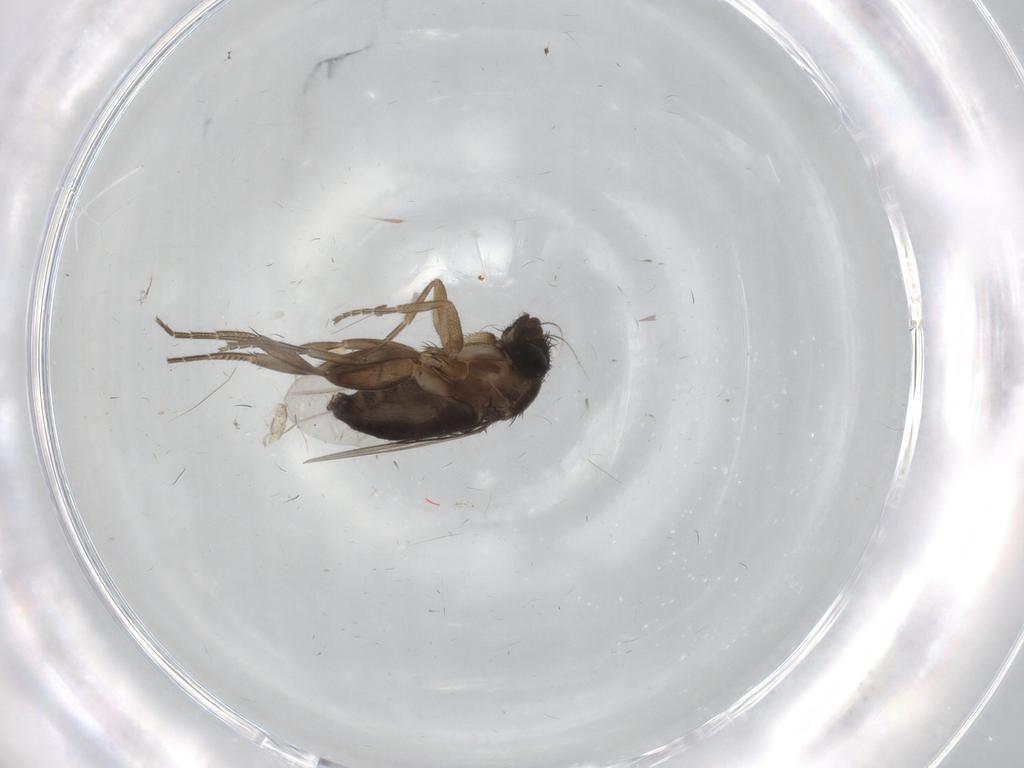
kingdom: Animalia
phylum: Arthropoda
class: Insecta
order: Diptera
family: Phoridae
